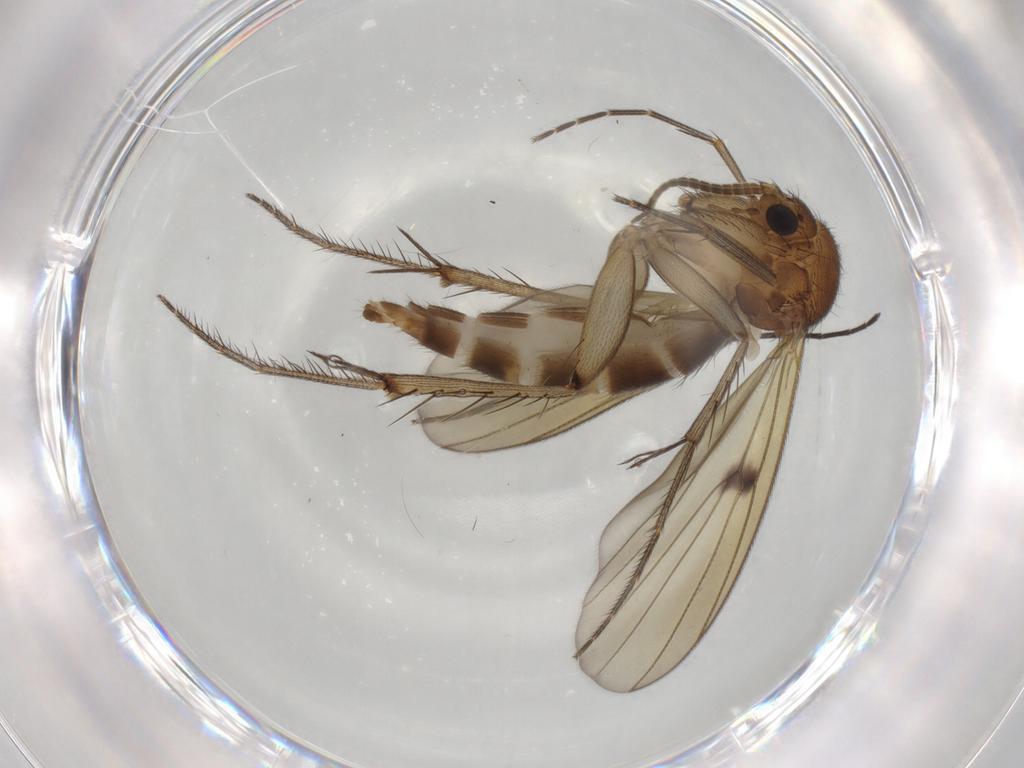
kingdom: Animalia
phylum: Arthropoda
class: Insecta
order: Diptera
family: Mycetophilidae
